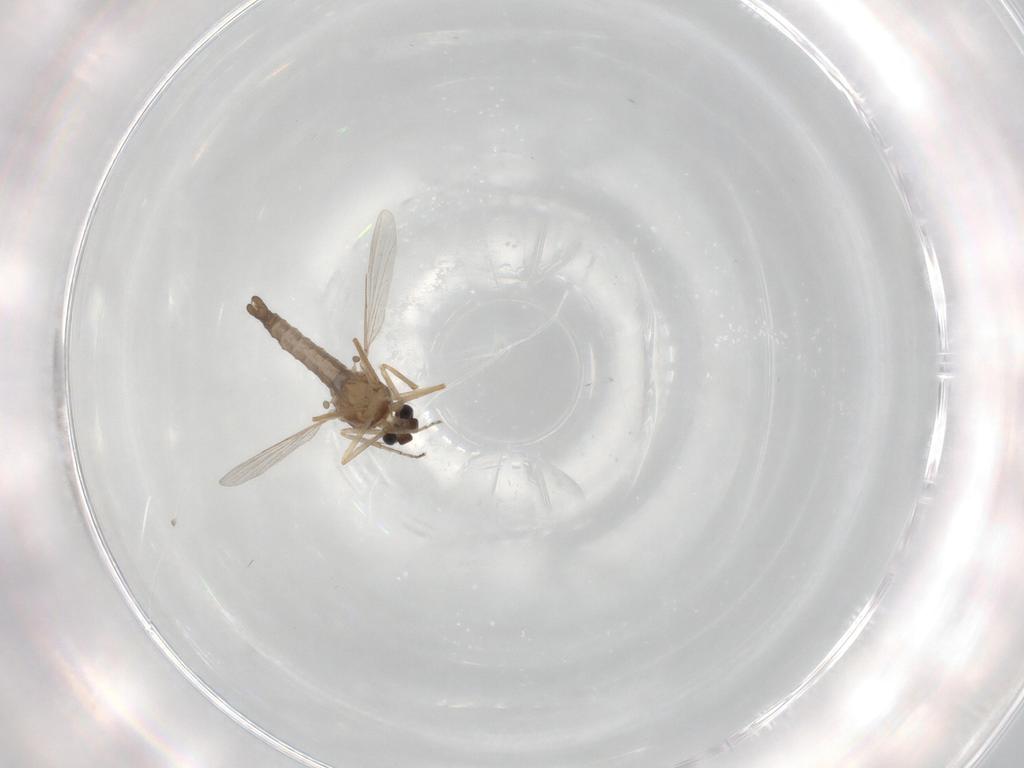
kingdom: Animalia
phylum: Arthropoda
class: Insecta
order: Diptera
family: Ceratopogonidae
